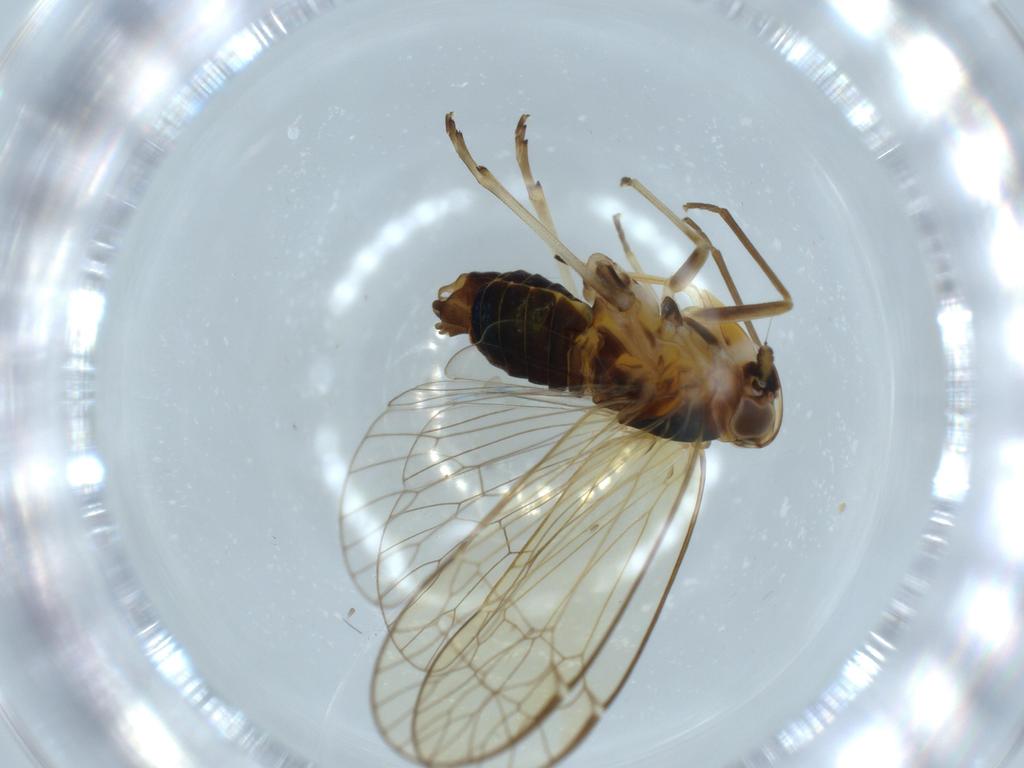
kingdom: Animalia
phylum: Arthropoda
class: Insecta
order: Hemiptera
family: Kinnaridae
